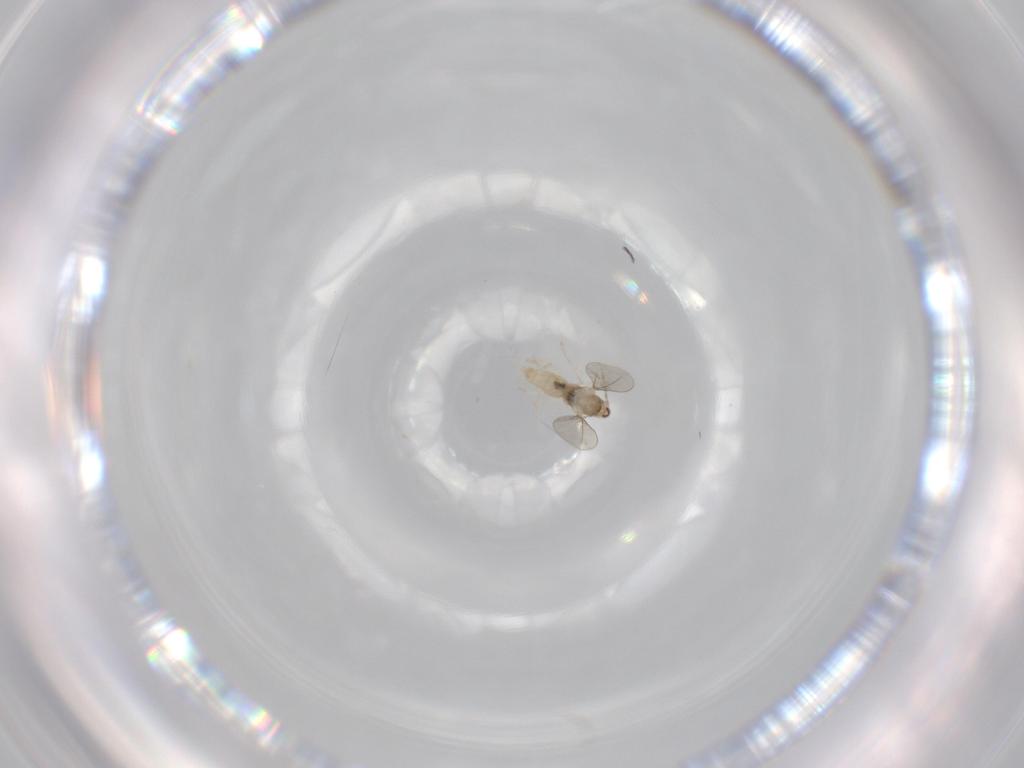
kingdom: Animalia
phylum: Arthropoda
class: Insecta
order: Diptera
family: Cecidomyiidae
